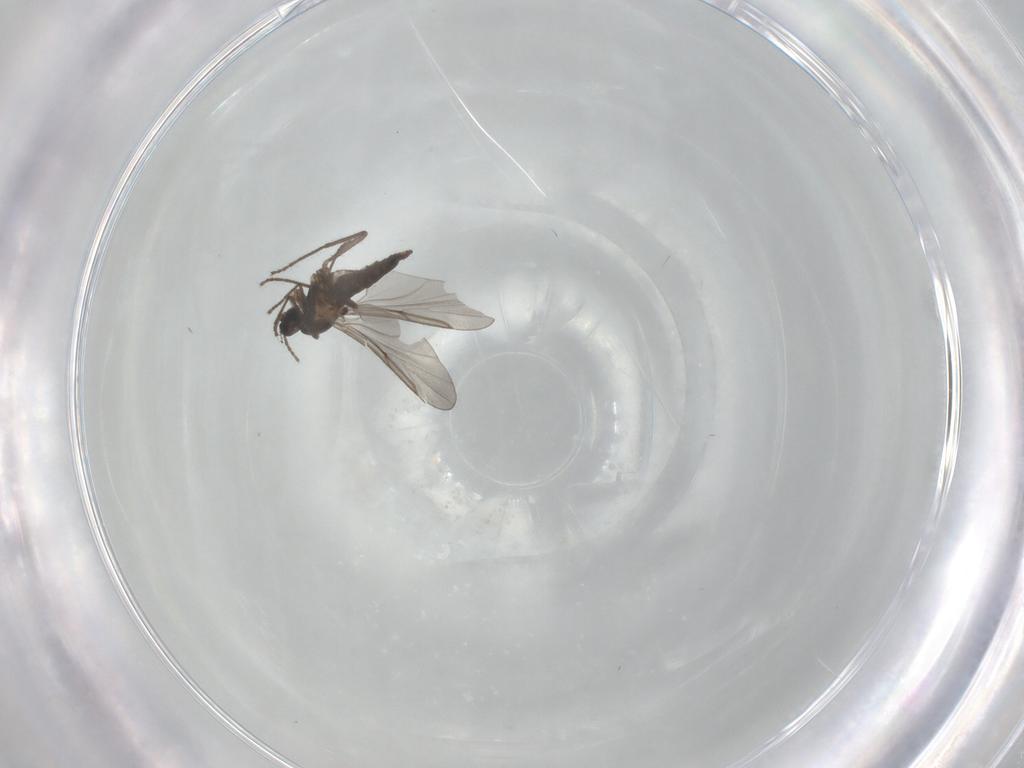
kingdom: Animalia
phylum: Arthropoda
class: Insecta
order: Diptera
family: Cecidomyiidae
